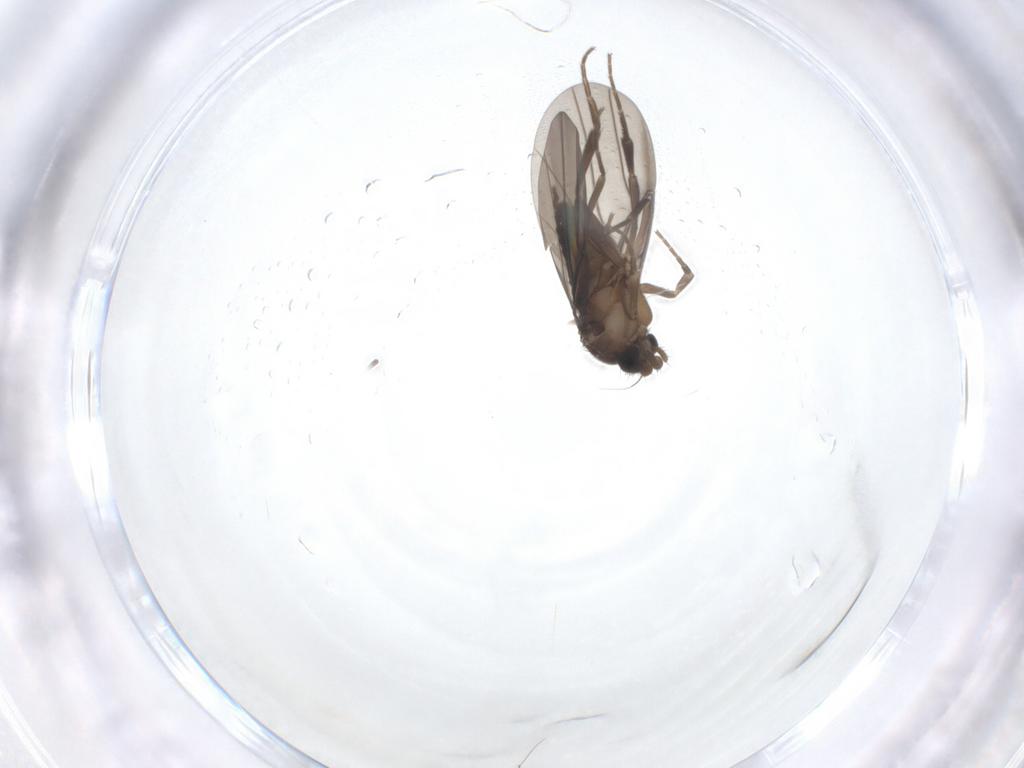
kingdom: Animalia
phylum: Arthropoda
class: Insecta
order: Diptera
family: Phoridae
